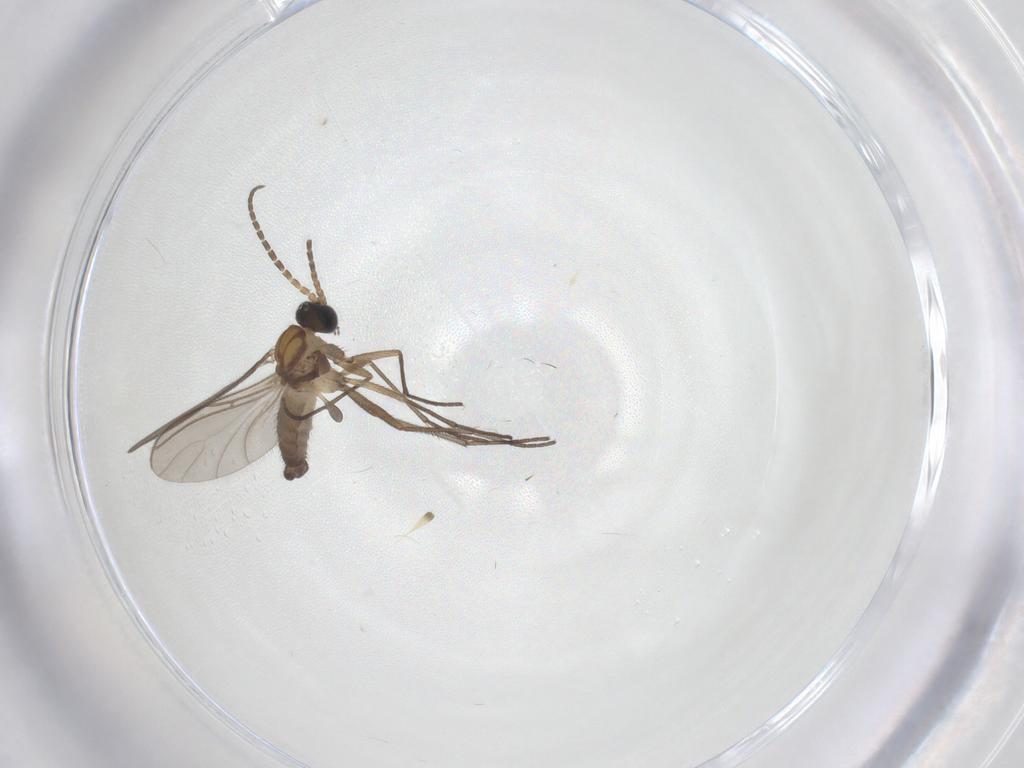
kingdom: Animalia
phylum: Arthropoda
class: Insecta
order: Diptera
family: Sciaridae
